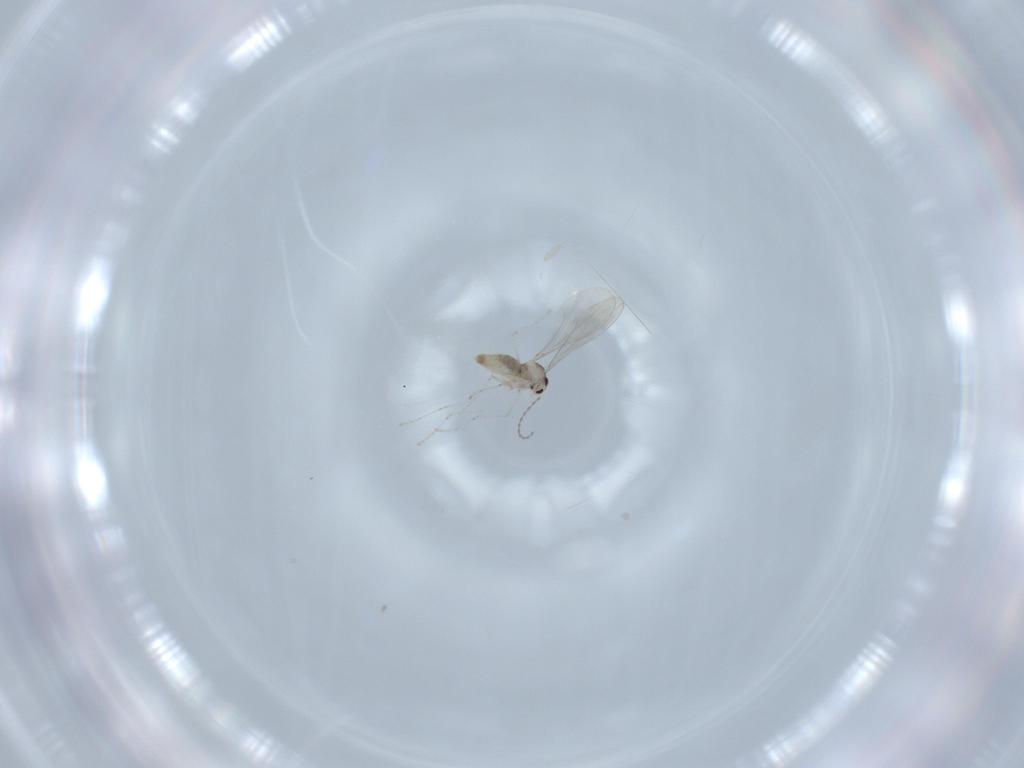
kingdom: Animalia
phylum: Arthropoda
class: Insecta
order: Diptera
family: Cecidomyiidae
